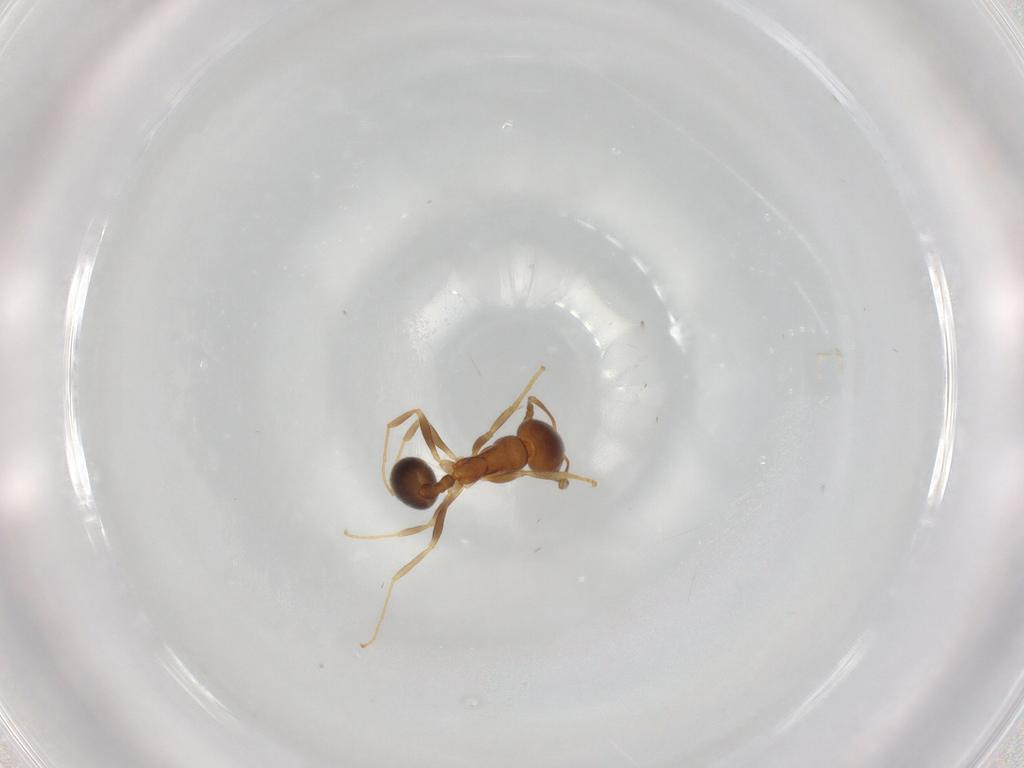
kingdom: Animalia
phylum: Arthropoda
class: Insecta
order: Hymenoptera
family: Formicidae
